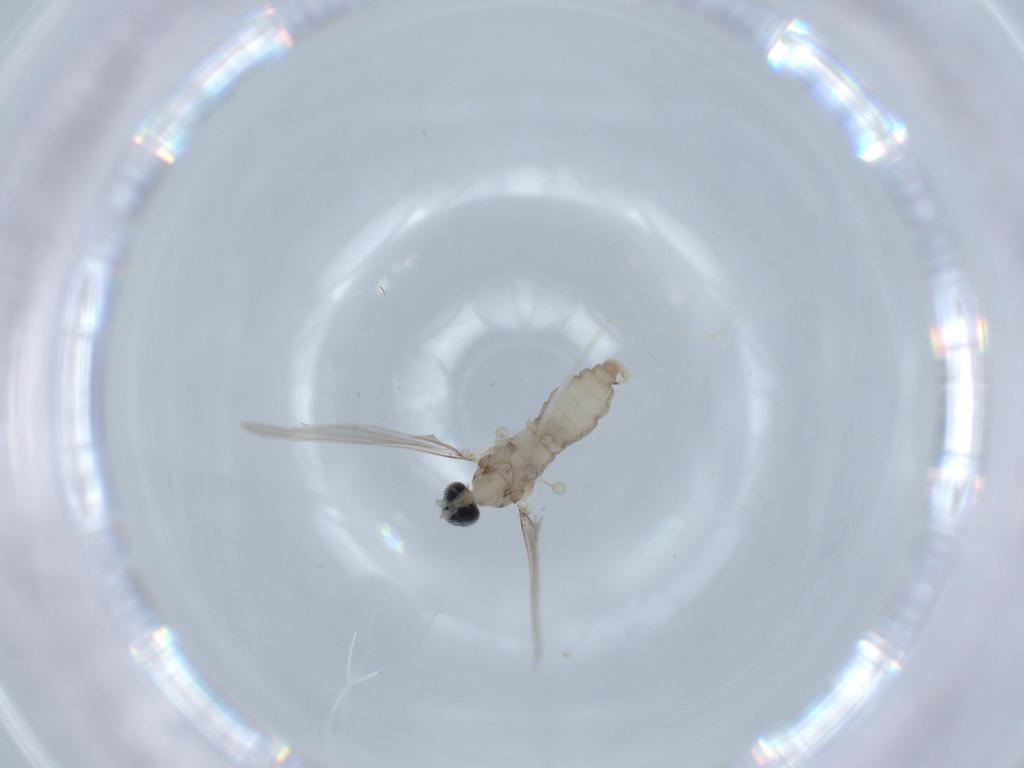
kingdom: Animalia
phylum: Arthropoda
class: Insecta
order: Diptera
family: Cecidomyiidae
